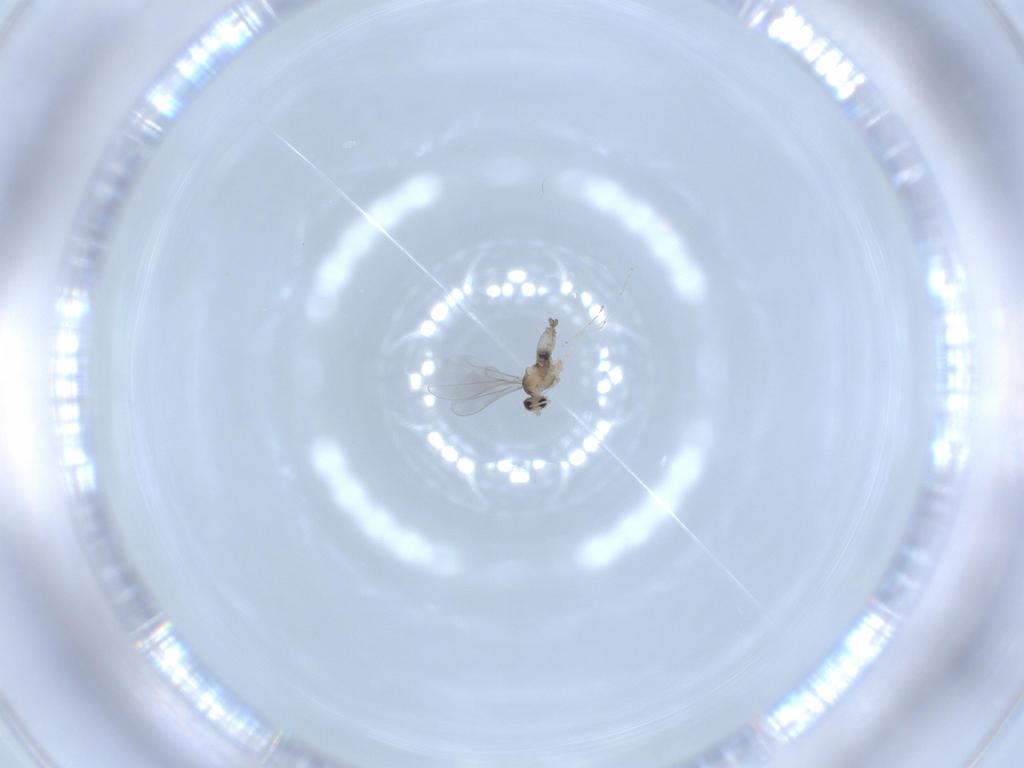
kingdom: Animalia
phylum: Arthropoda
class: Insecta
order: Diptera
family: Cecidomyiidae
